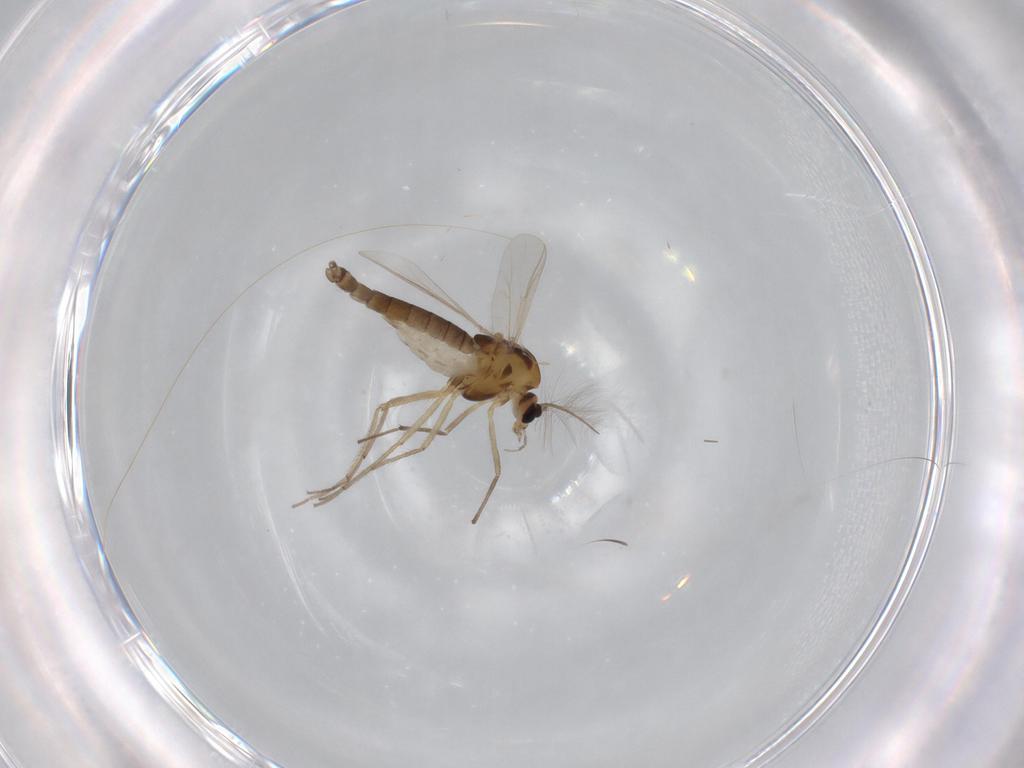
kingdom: Animalia
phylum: Arthropoda
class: Insecta
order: Diptera
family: Chironomidae
